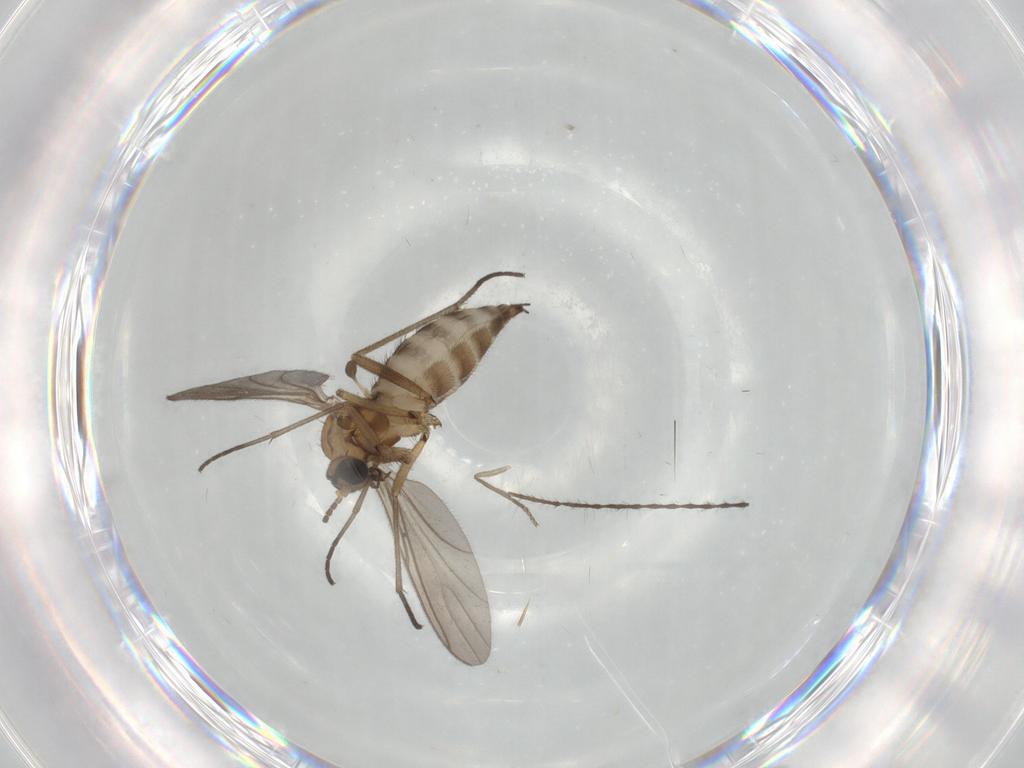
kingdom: Animalia
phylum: Arthropoda
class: Insecta
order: Diptera
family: Sciaridae
